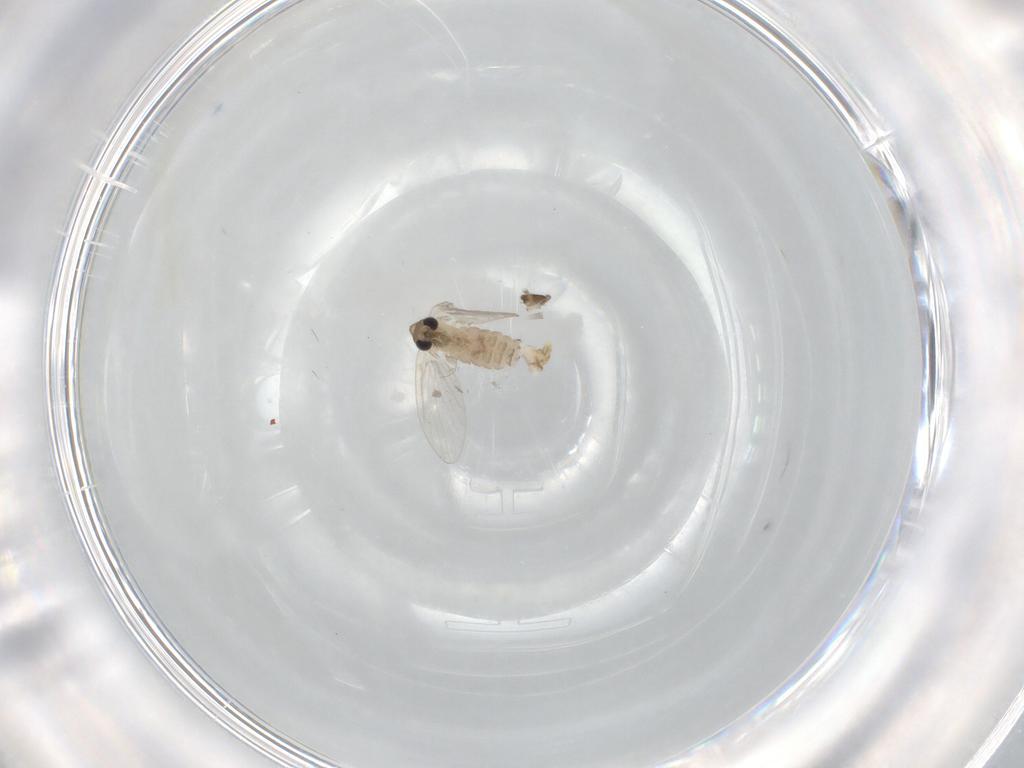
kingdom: Animalia
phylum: Arthropoda
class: Insecta
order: Diptera
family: Psychodidae
